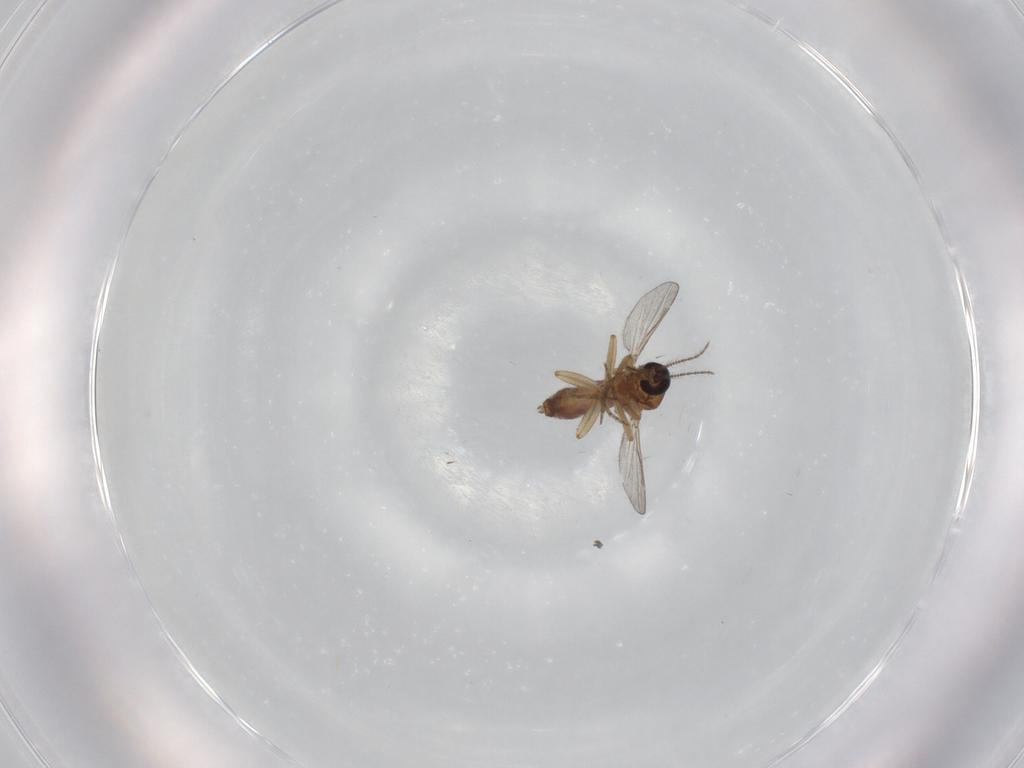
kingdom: Animalia
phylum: Arthropoda
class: Insecta
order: Diptera
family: Ceratopogonidae
